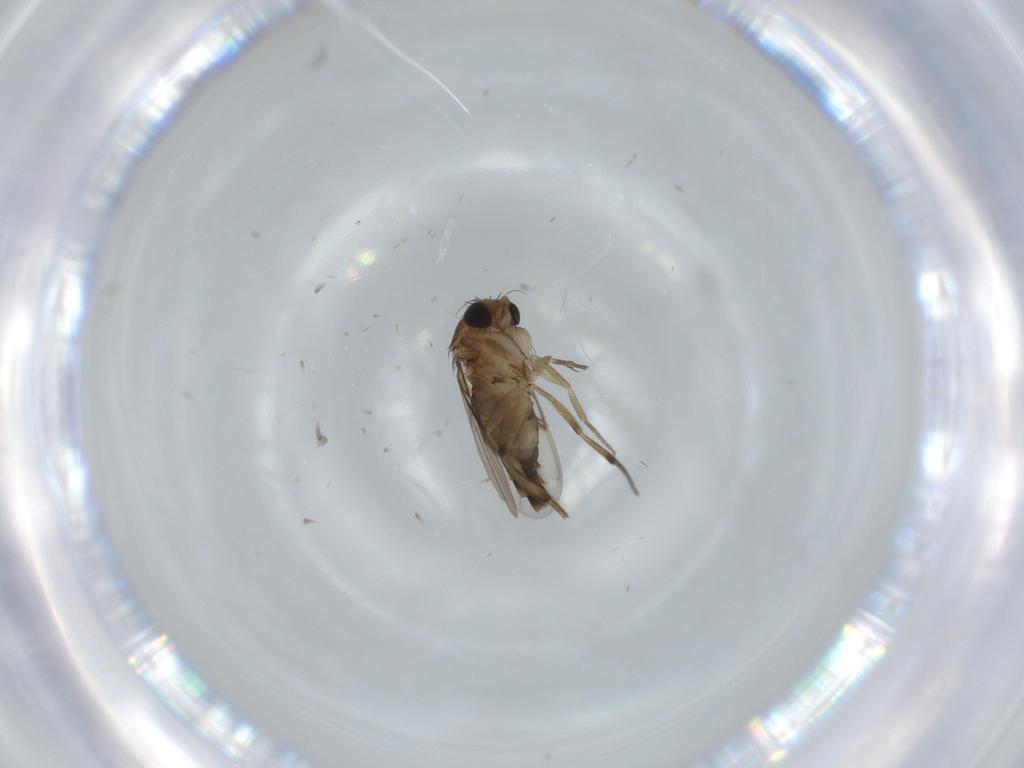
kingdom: Animalia
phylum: Arthropoda
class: Insecta
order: Diptera
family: Phoridae
